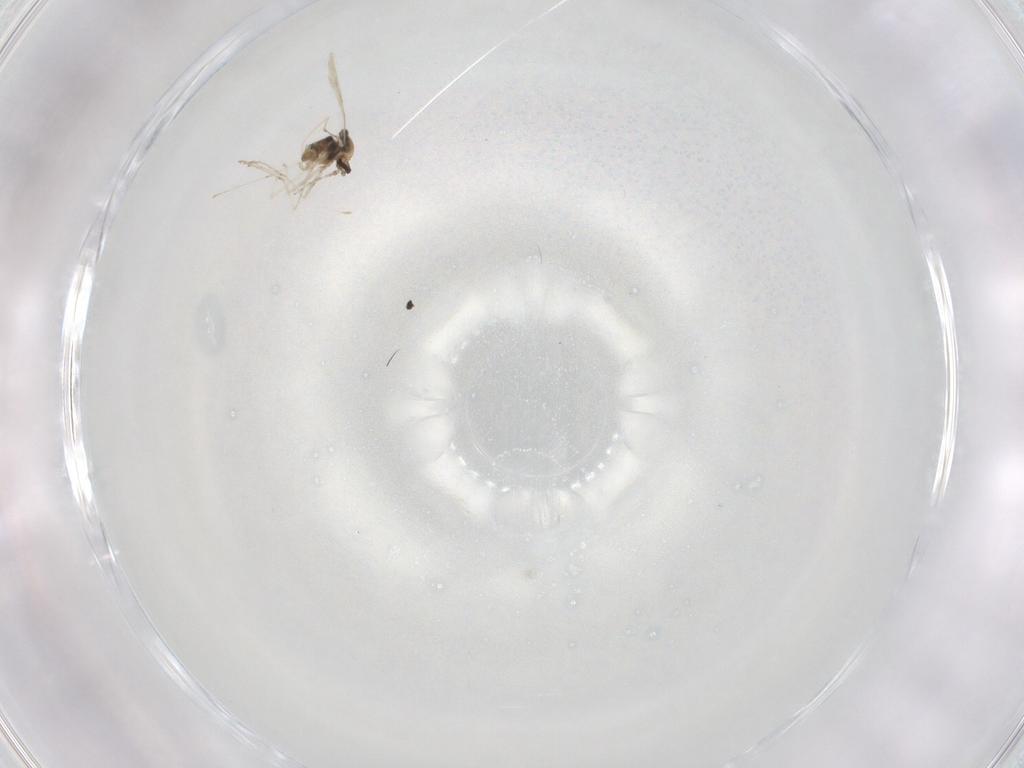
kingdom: Animalia
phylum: Arthropoda
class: Insecta
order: Diptera
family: Cecidomyiidae
